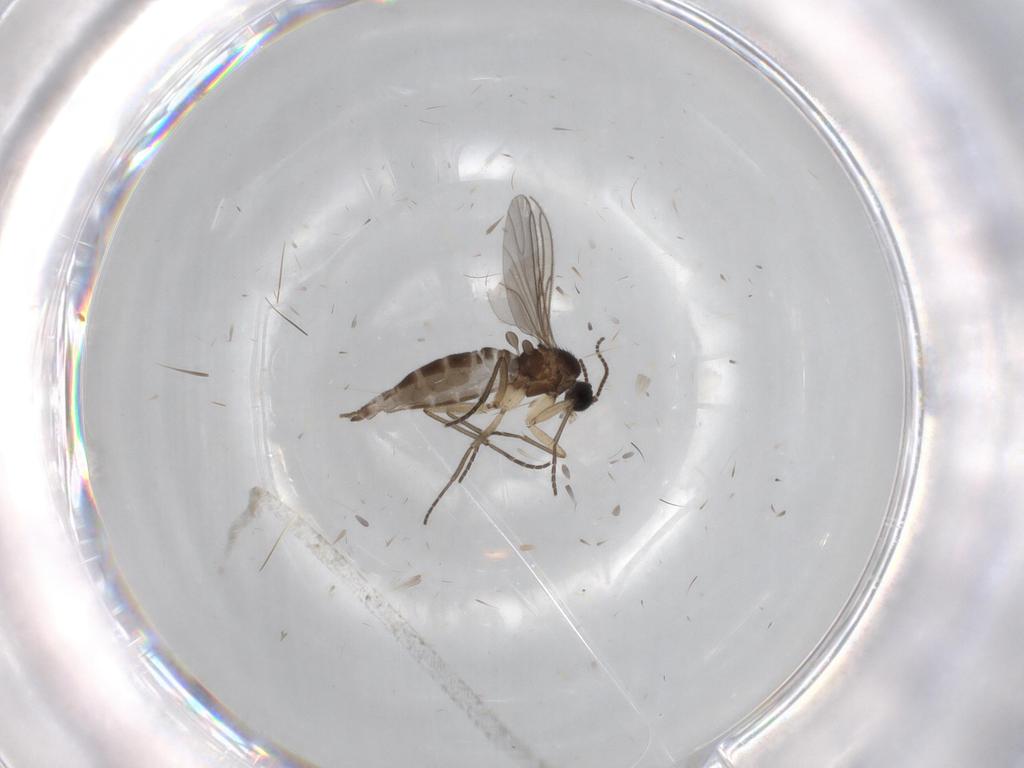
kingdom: Animalia
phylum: Arthropoda
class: Insecta
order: Diptera
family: Sciaridae
